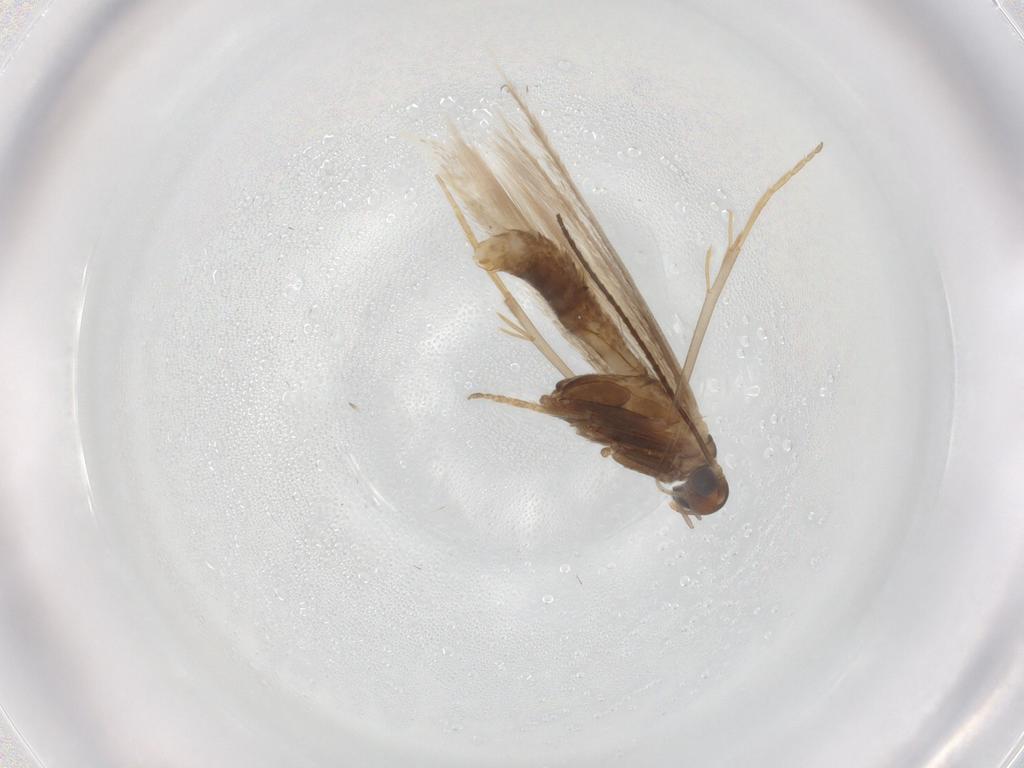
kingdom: Animalia
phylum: Arthropoda
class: Insecta
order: Lepidoptera
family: Coleophoridae
